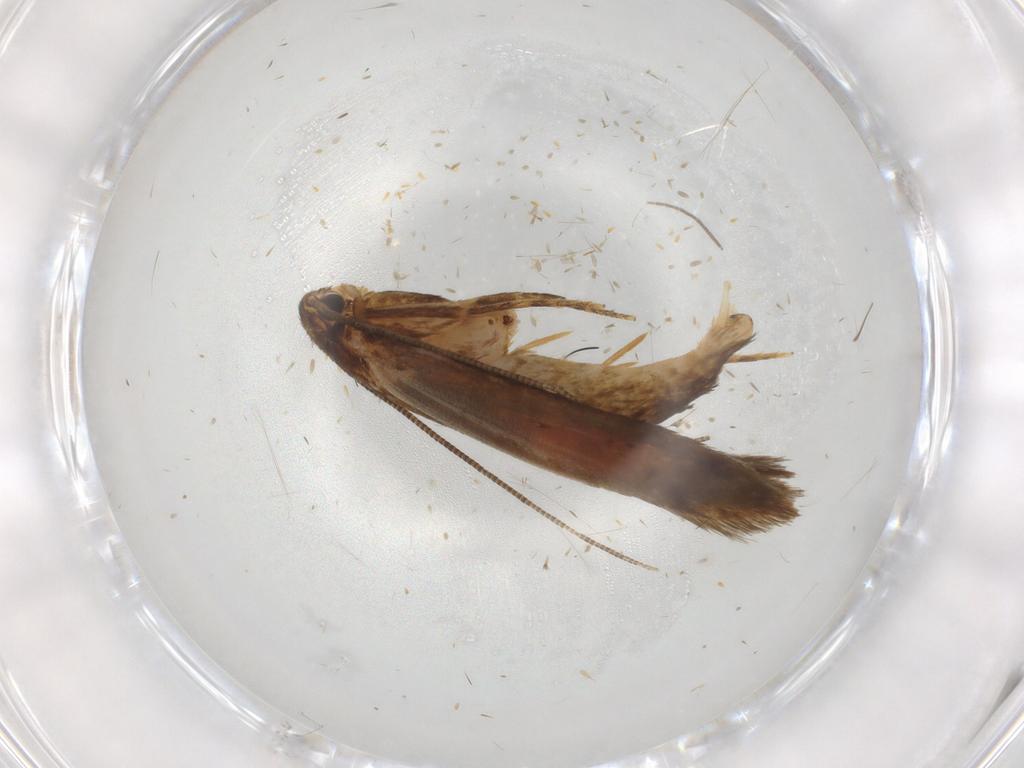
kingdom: Animalia
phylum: Arthropoda
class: Insecta
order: Lepidoptera
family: Tineidae
